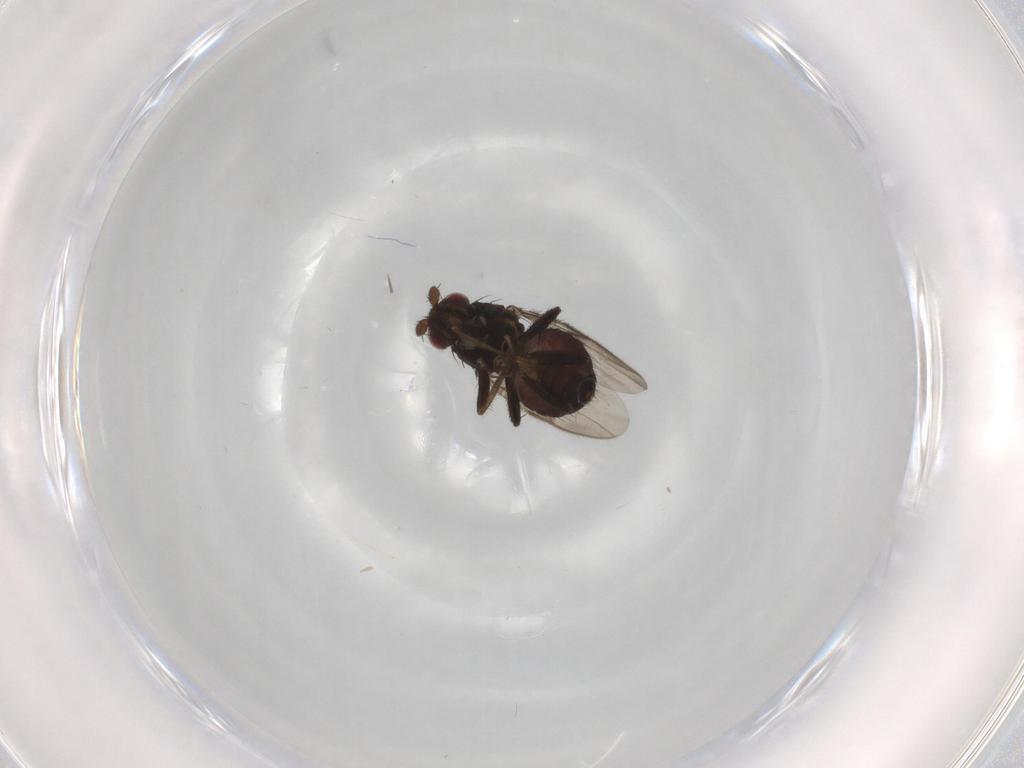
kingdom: Animalia
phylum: Arthropoda
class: Insecta
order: Diptera
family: Sphaeroceridae
